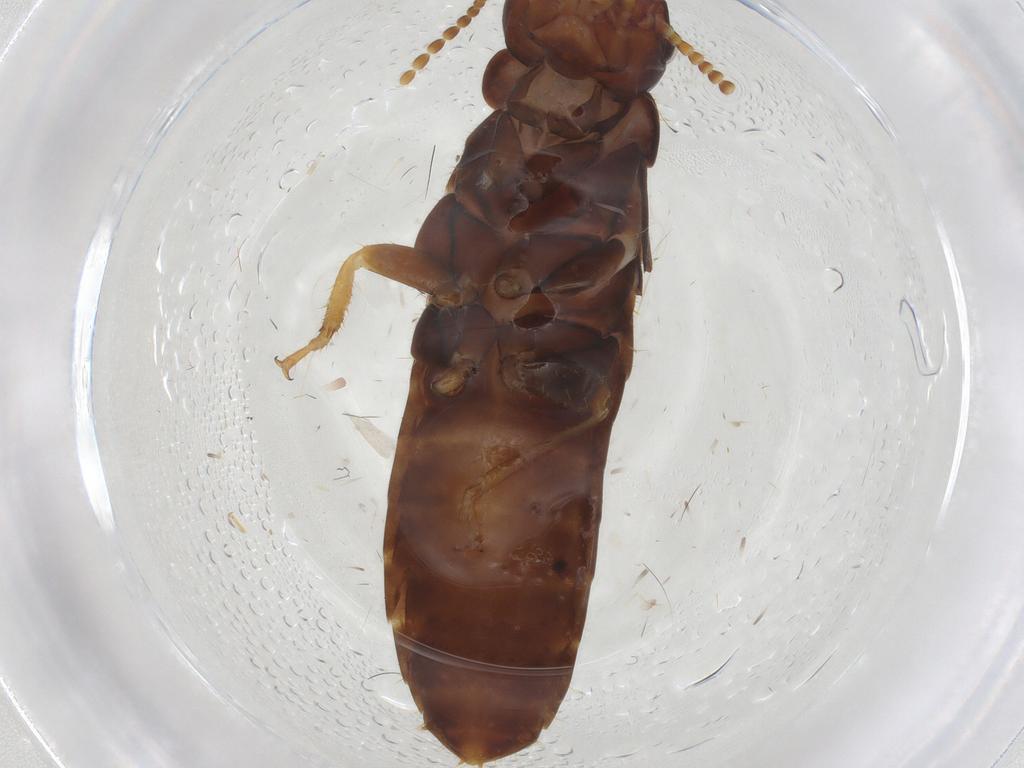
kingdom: Animalia
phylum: Arthropoda
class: Insecta
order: Blattodea
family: Kalotermitidae
